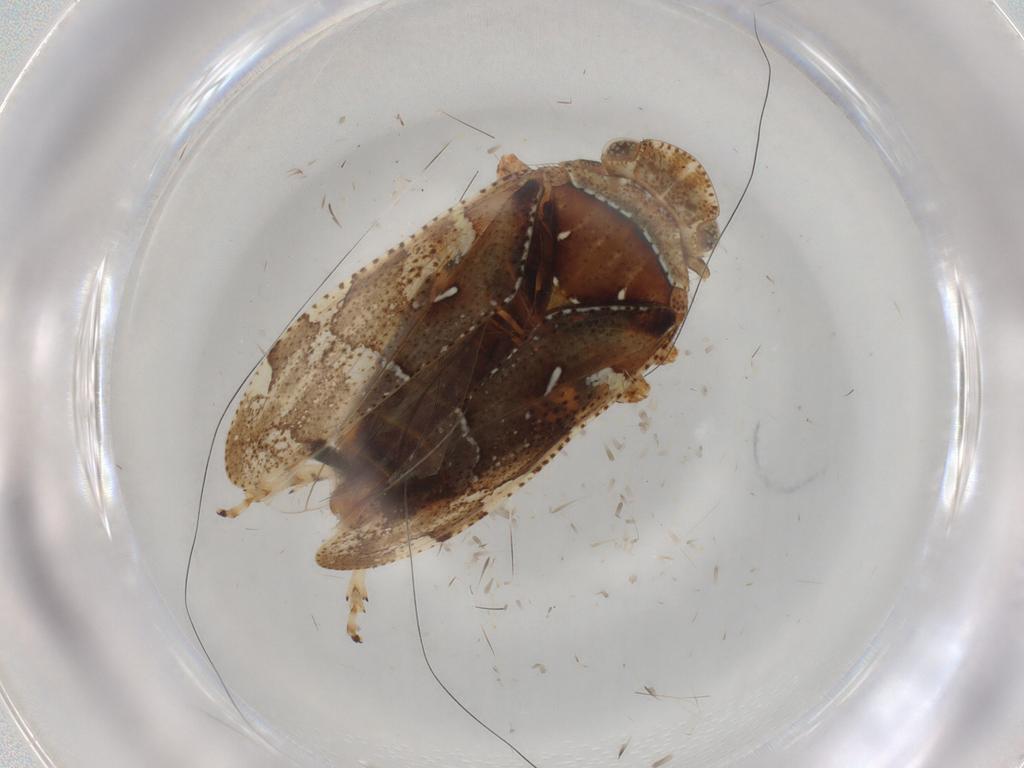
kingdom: Animalia
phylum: Arthropoda
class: Insecta
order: Hemiptera
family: Tettigometridae
